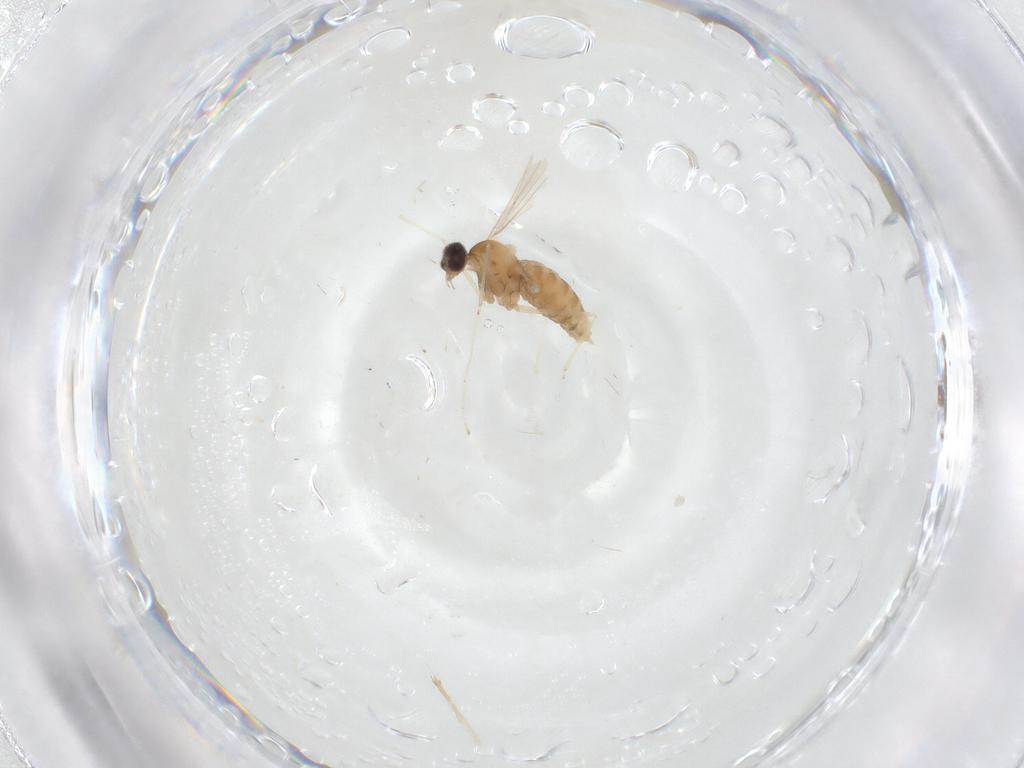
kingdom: Animalia
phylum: Arthropoda
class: Insecta
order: Diptera
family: Cecidomyiidae
